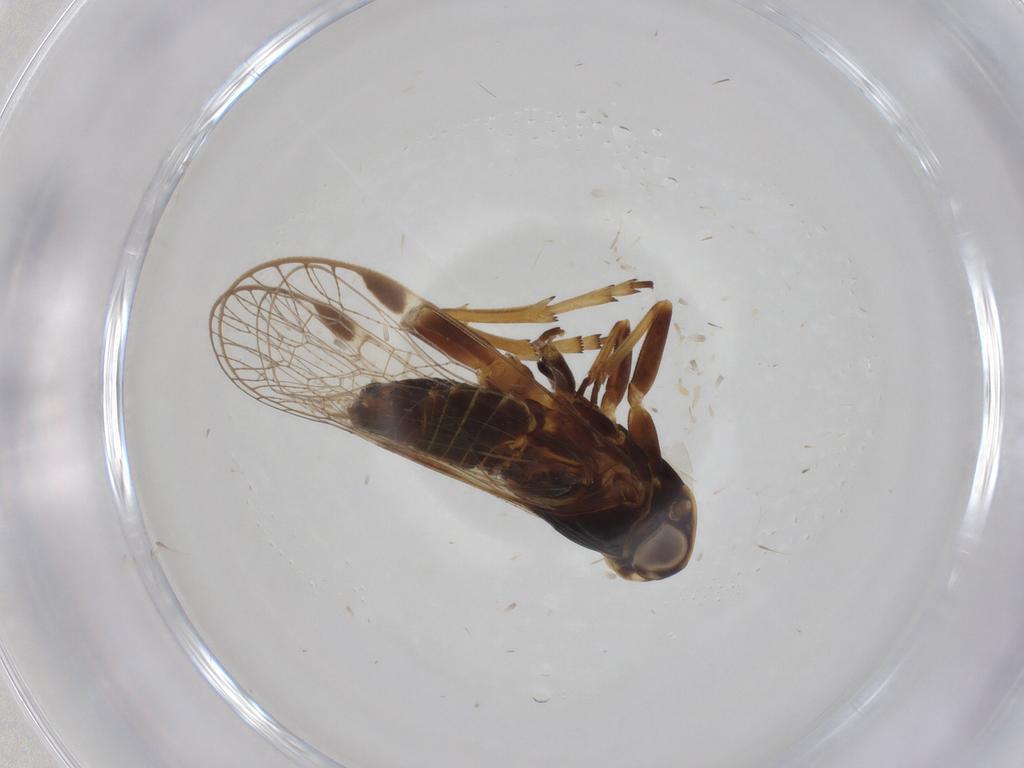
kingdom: Animalia
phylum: Arthropoda
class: Insecta
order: Hemiptera
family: Cixiidae
